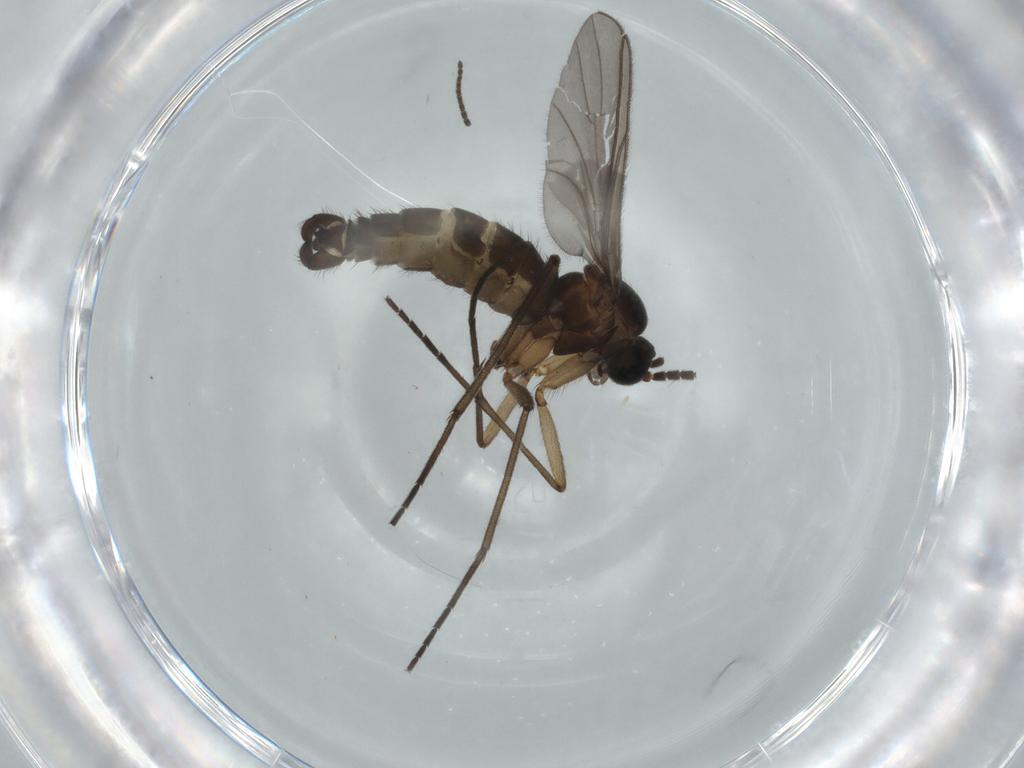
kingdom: Animalia
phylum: Arthropoda
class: Insecta
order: Diptera
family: Sciaridae
